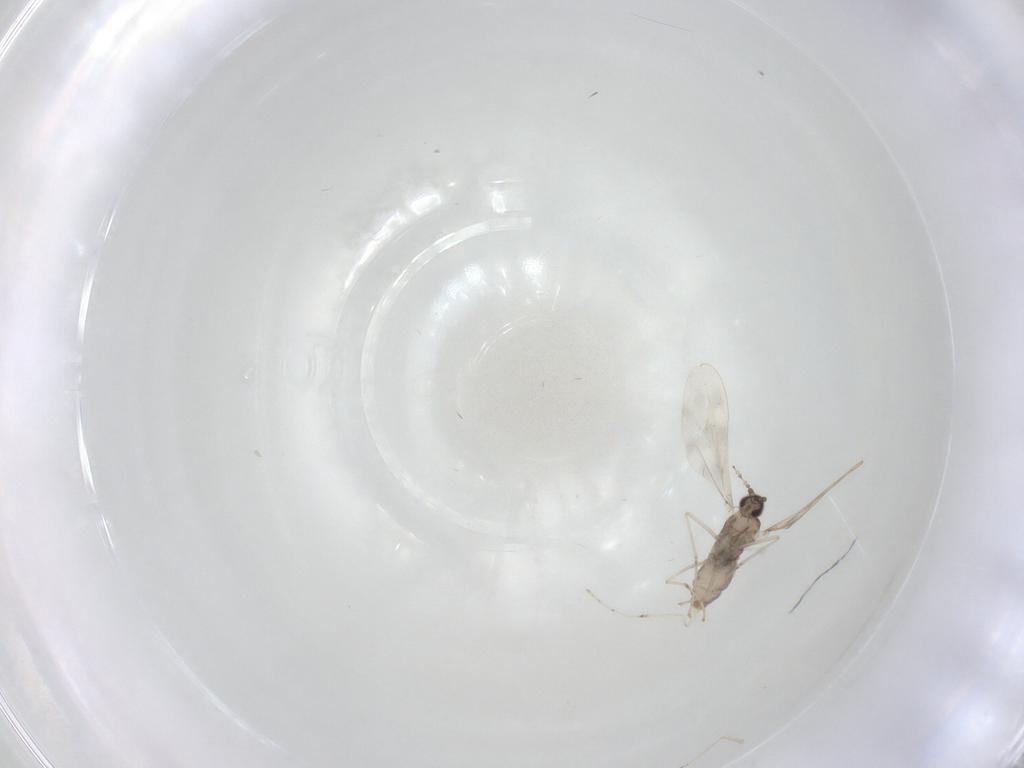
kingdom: Animalia
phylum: Arthropoda
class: Insecta
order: Diptera
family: Cecidomyiidae
